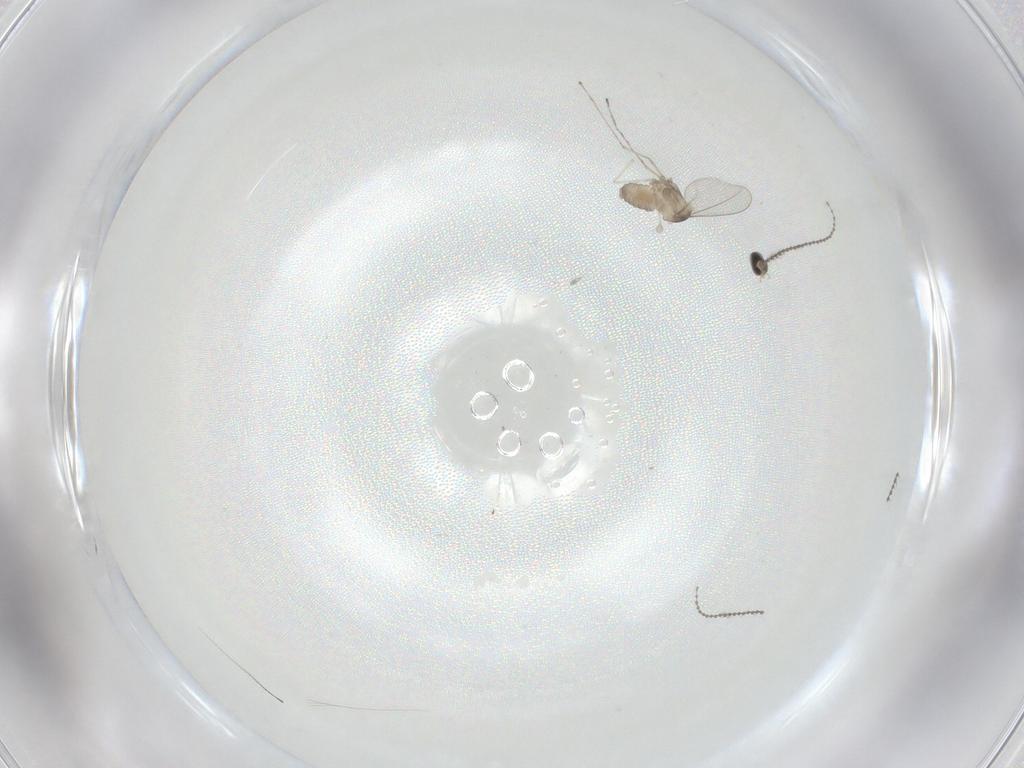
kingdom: Animalia
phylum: Arthropoda
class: Insecta
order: Diptera
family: Cecidomyiidae
